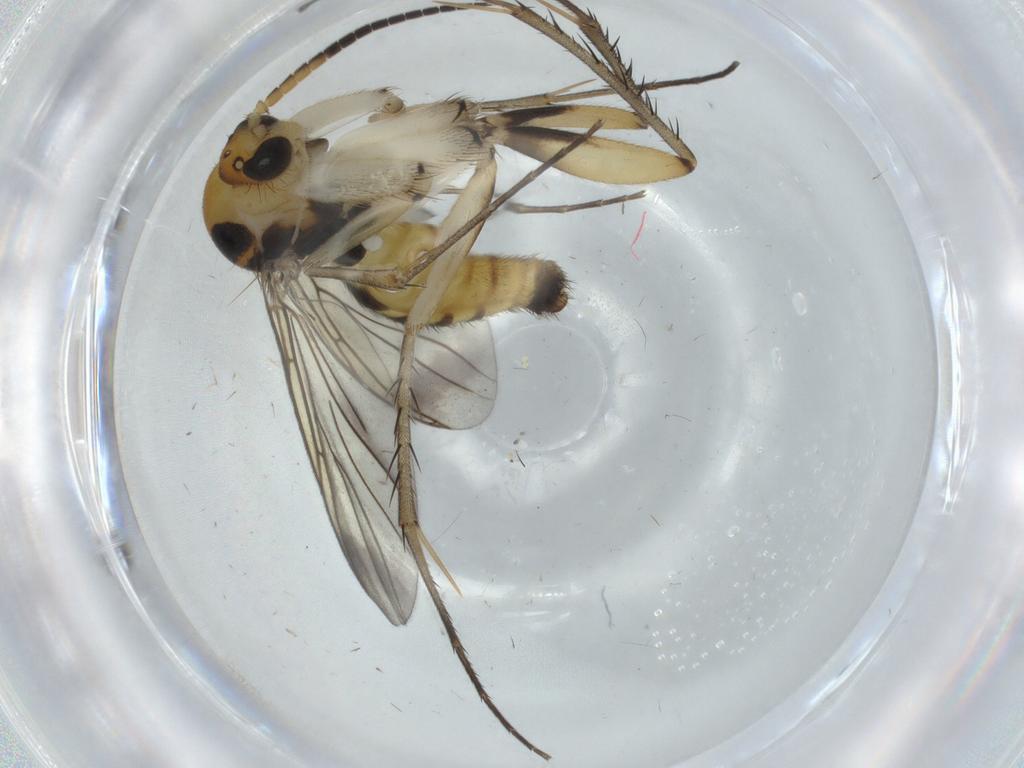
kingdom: Animalia
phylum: Arthropoda
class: Insecta
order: Diptera
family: Mycetophilidae
